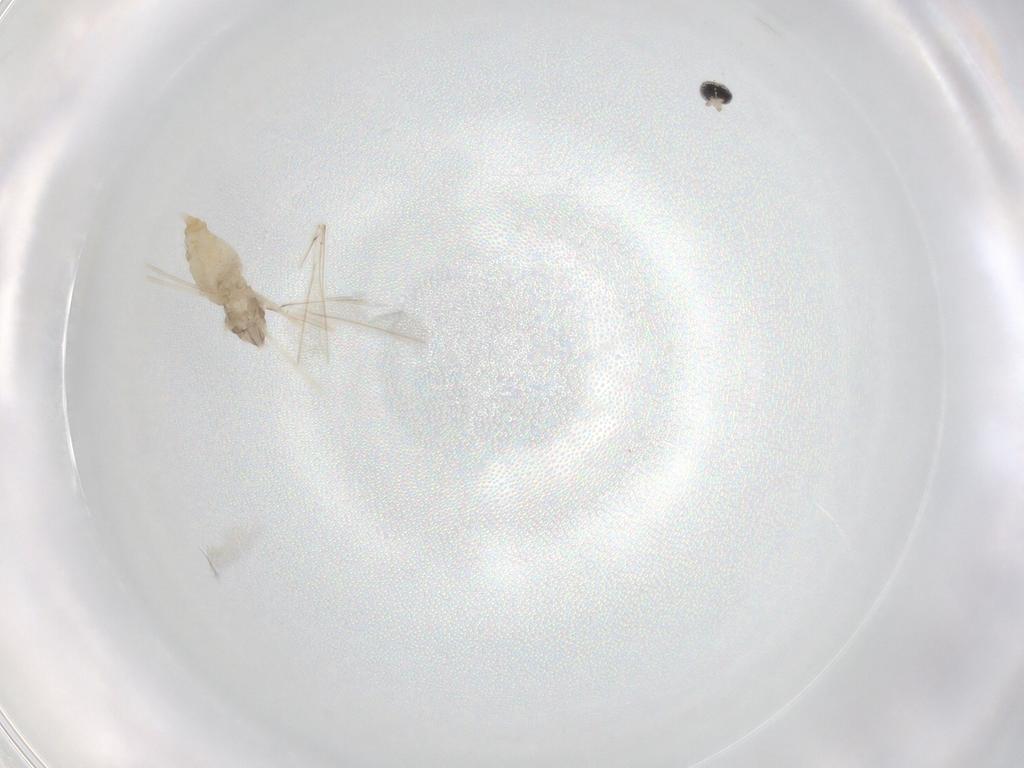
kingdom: Animalia
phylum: Arthropoda
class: Insecta
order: Diptera
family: Cecidomyiidae
